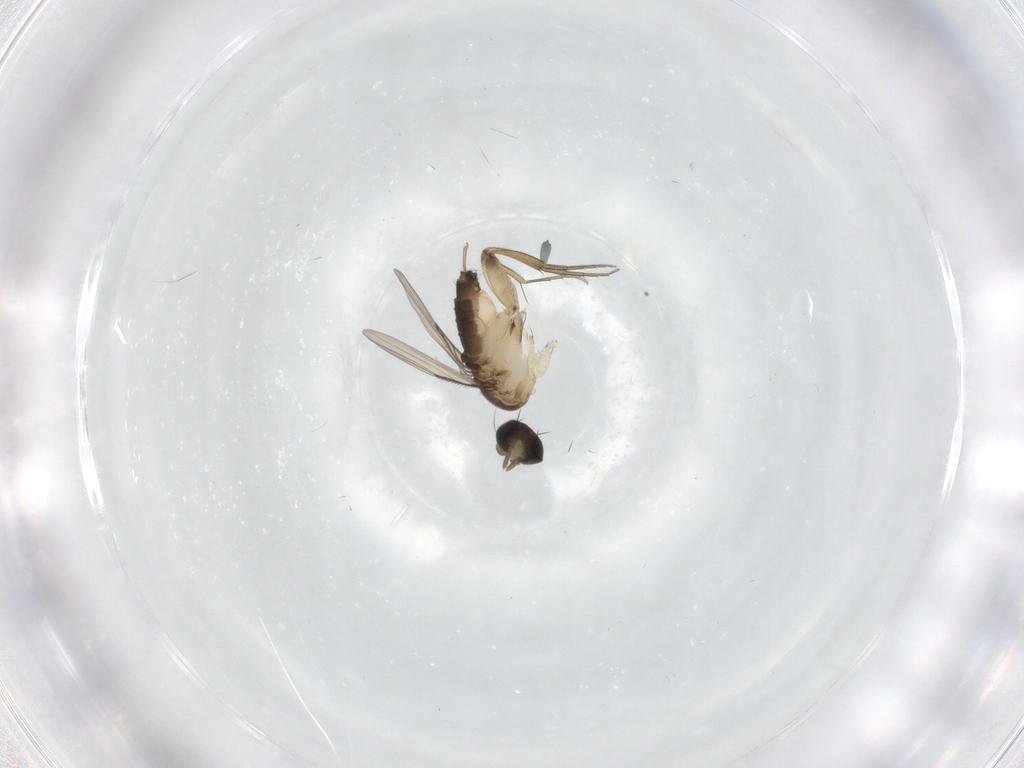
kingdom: Animalia
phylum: Arthropoda
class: Insecta
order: Diptera
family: Phoridae
